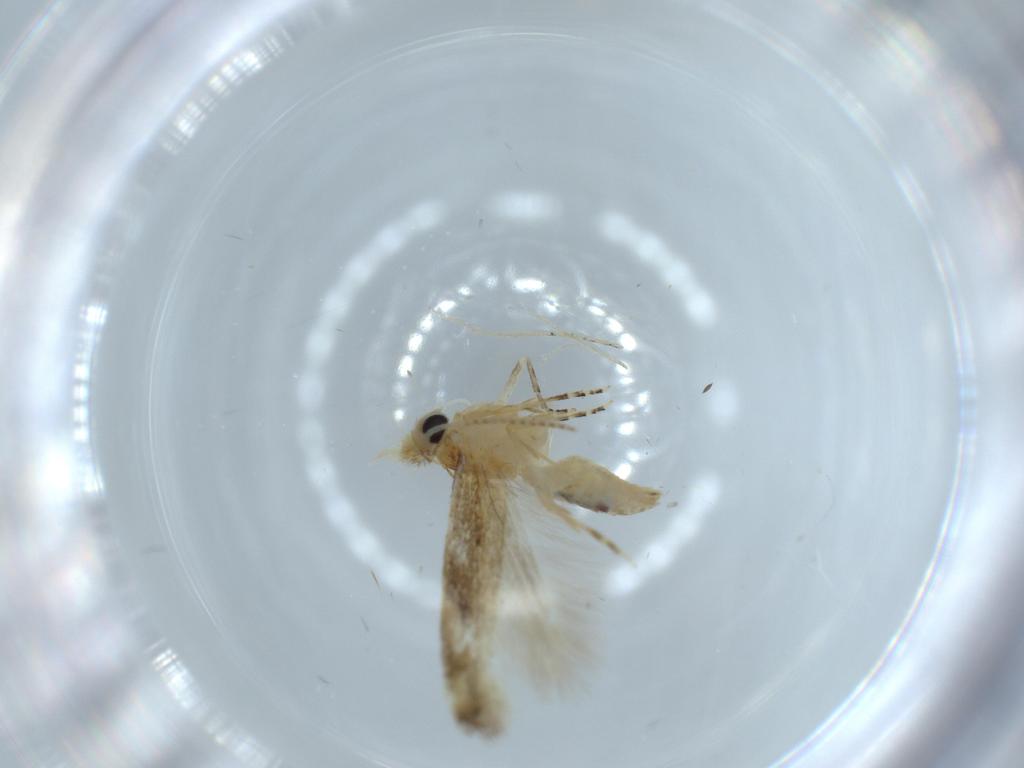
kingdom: Animalia
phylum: Arthropoda
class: Insecta
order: Lepidoptera
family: Bucculatricidae
